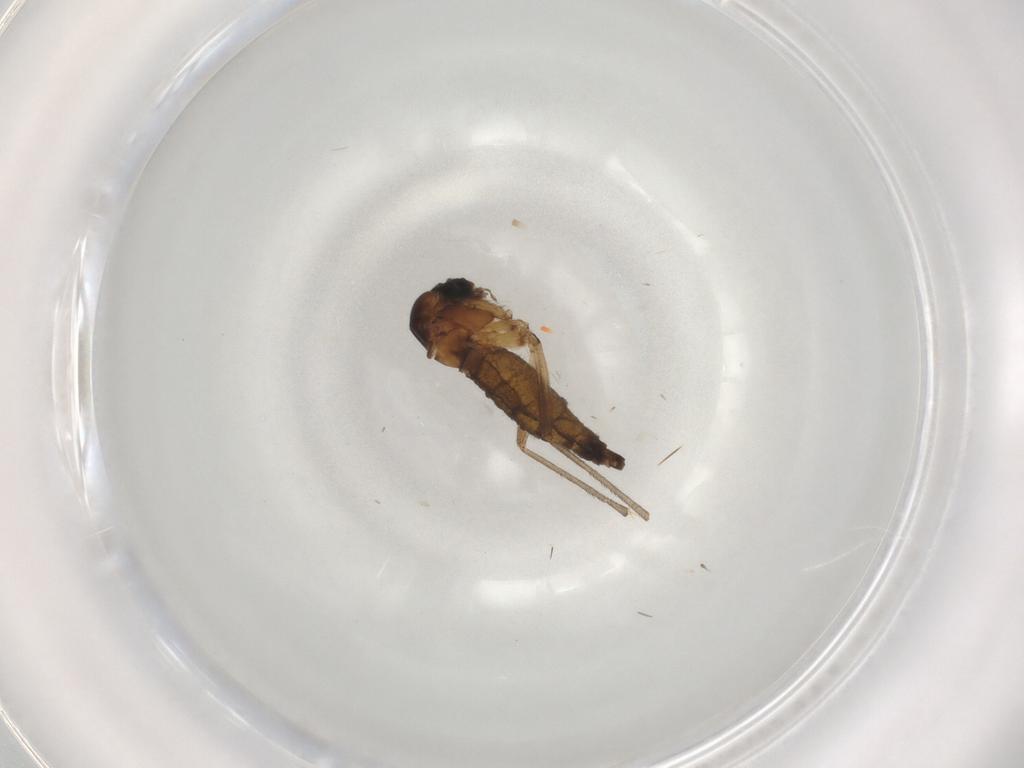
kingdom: Animalia
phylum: Arthropoda
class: Insecta
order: Diptera
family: Sciaridae
